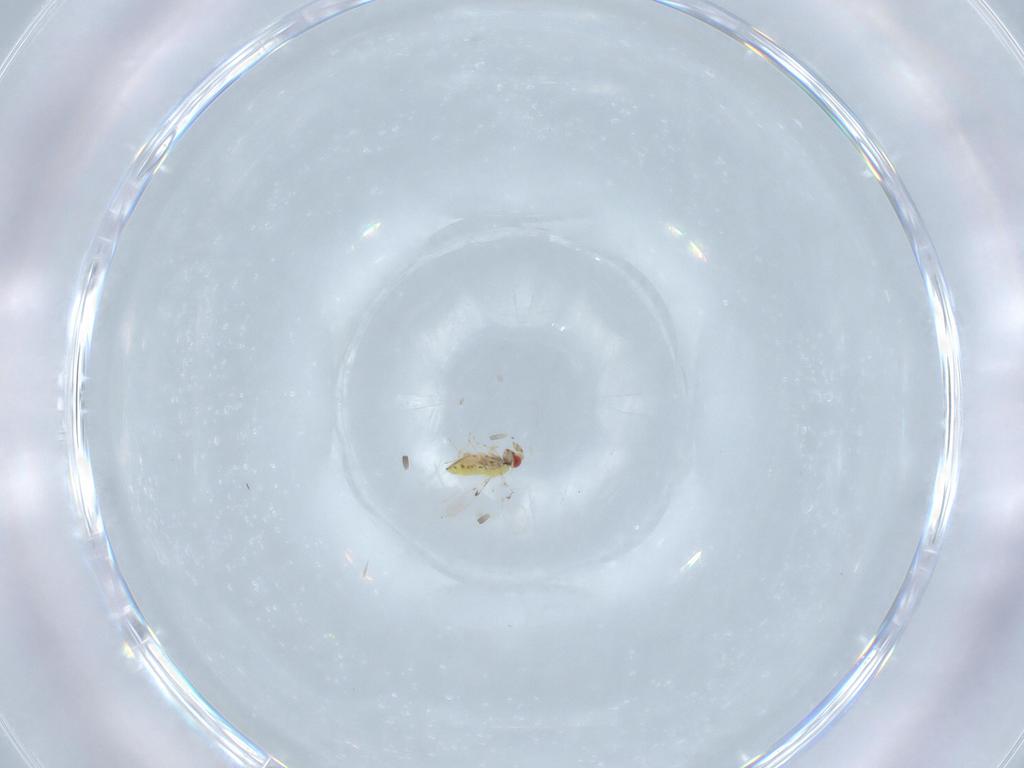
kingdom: Animalia
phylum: Arthropoda
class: Insecta
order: Hymenoptera
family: Trichogrammatidae
